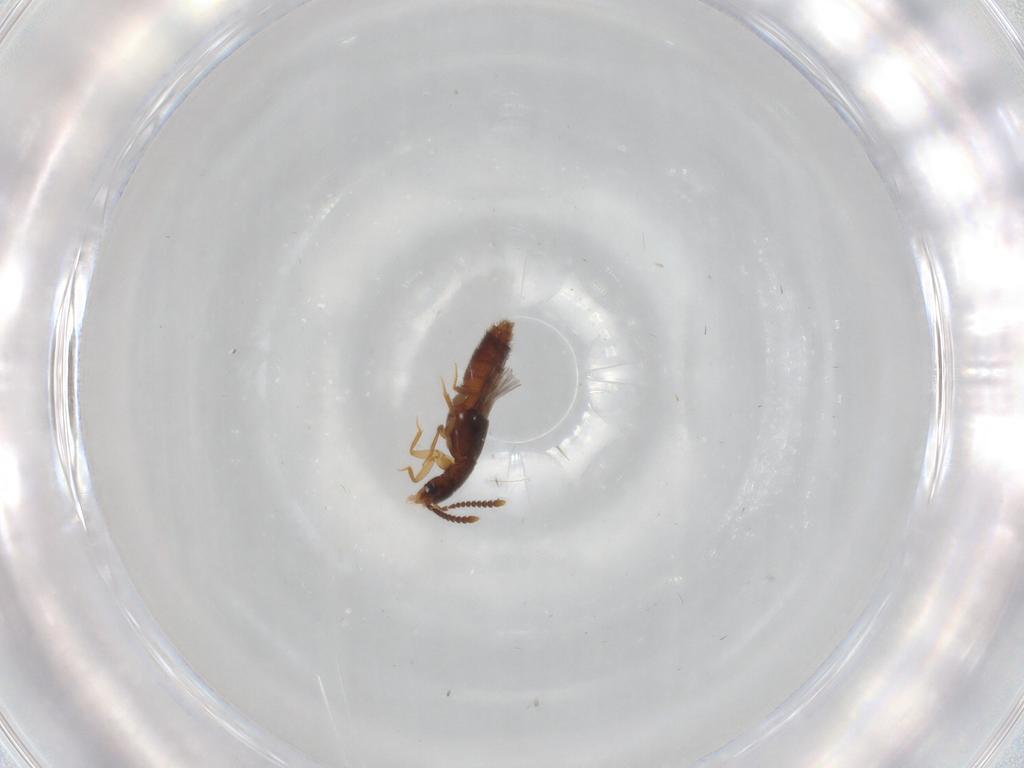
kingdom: Animalia
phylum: Arthropoda
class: Insecta
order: Coleoptera
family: Staphylinidae
